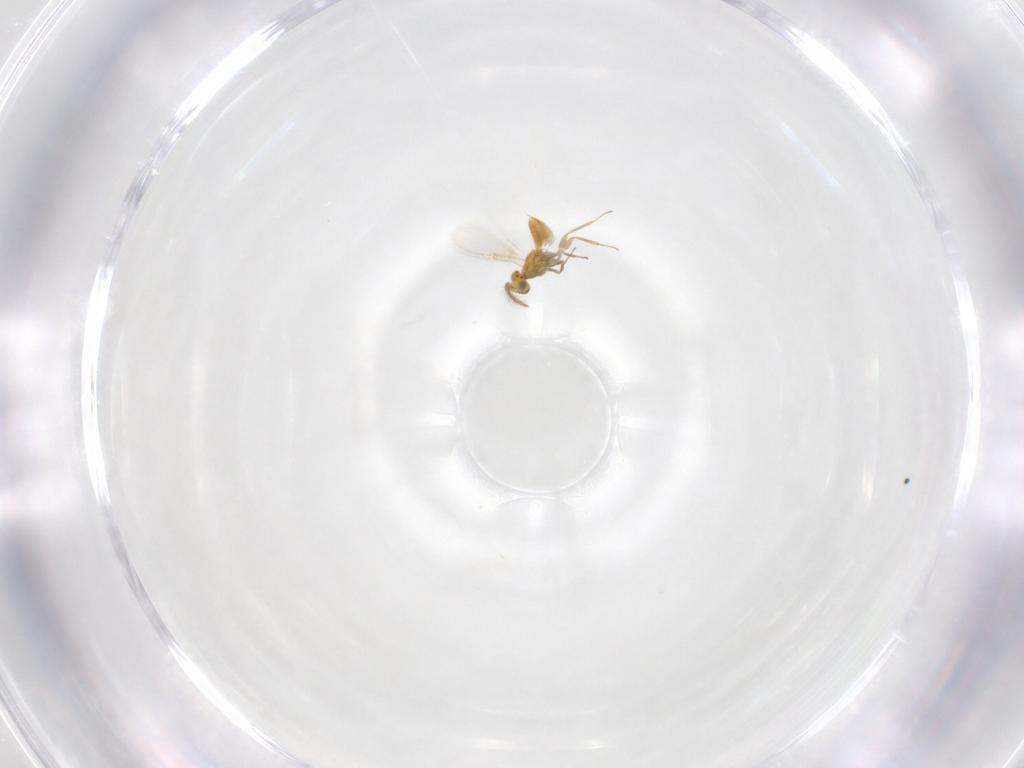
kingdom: Animalia
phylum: Arthropoda
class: Insecta
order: Hymenoptera
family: Aphelinidae
